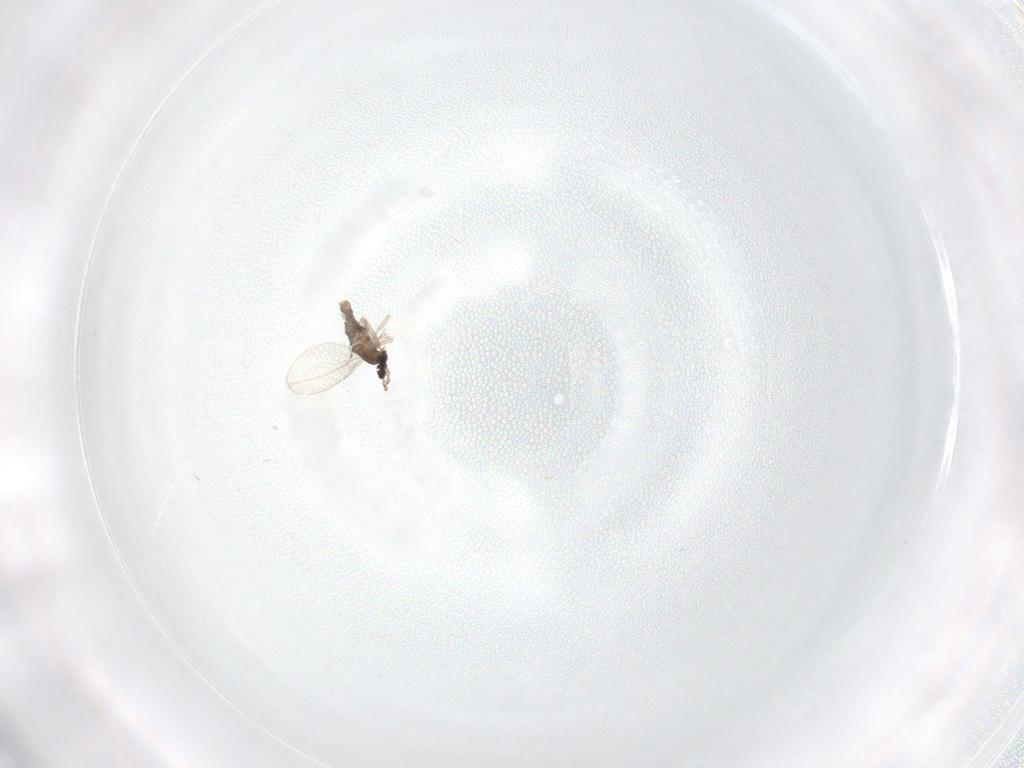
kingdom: Animalia
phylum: Arthropoda
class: Insecta
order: Diptera
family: Cecidomyiidae
